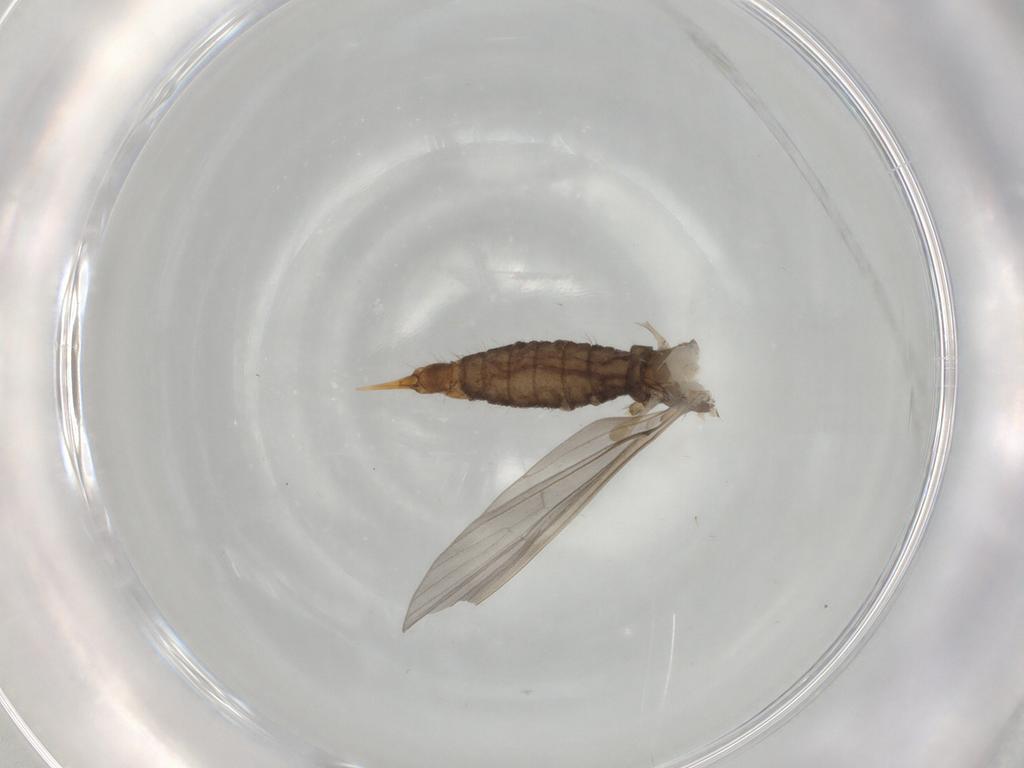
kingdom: Animalia
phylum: Arthropoda
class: Insecta
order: Diptera
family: Limoniidae
